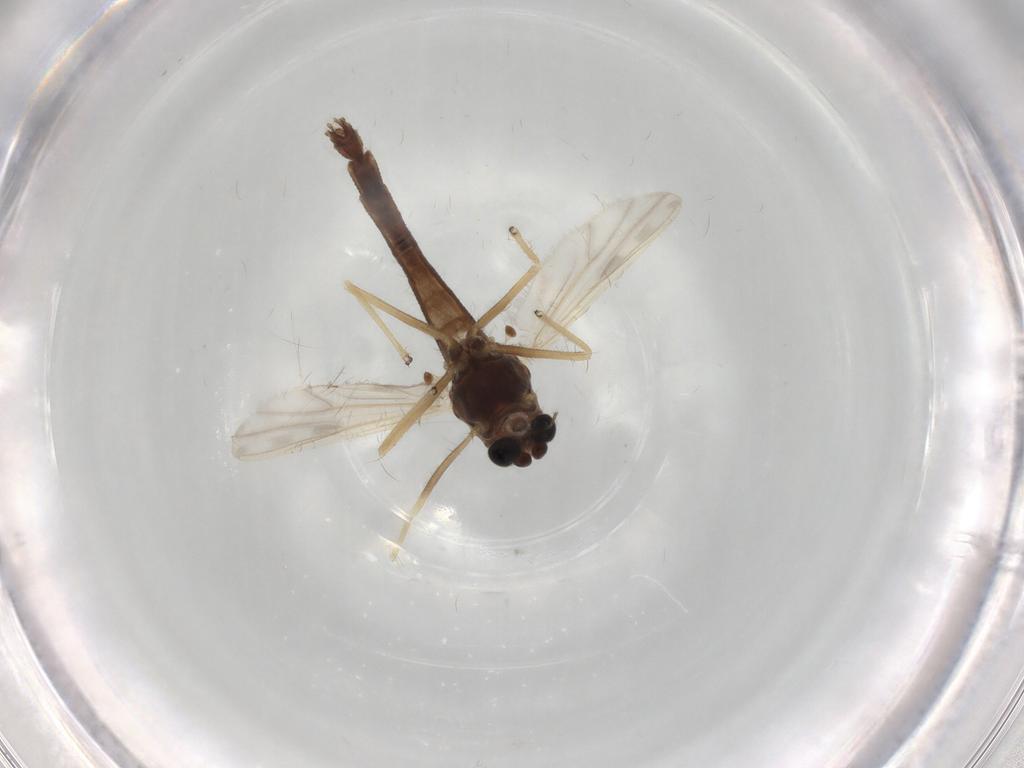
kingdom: Animalia
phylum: Arthropoda
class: Insecta
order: Diptera
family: Chironomidae
